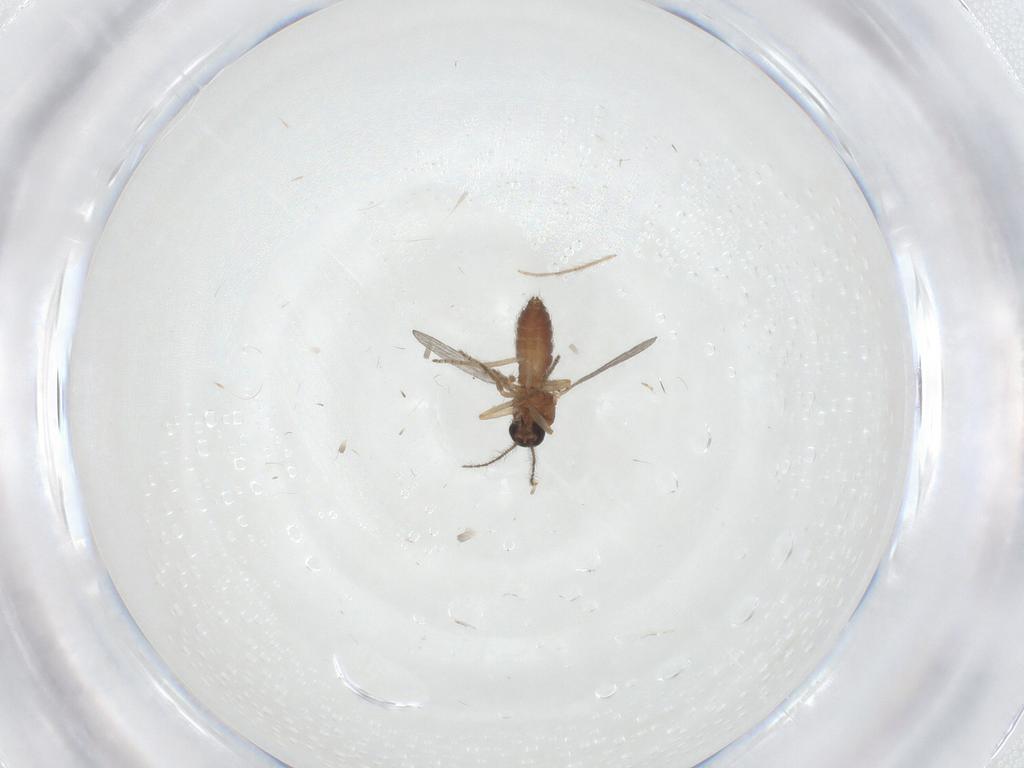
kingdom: Animalia
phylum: Arthropoda
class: Insecta
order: Diptera
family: Ceratopogonidae
